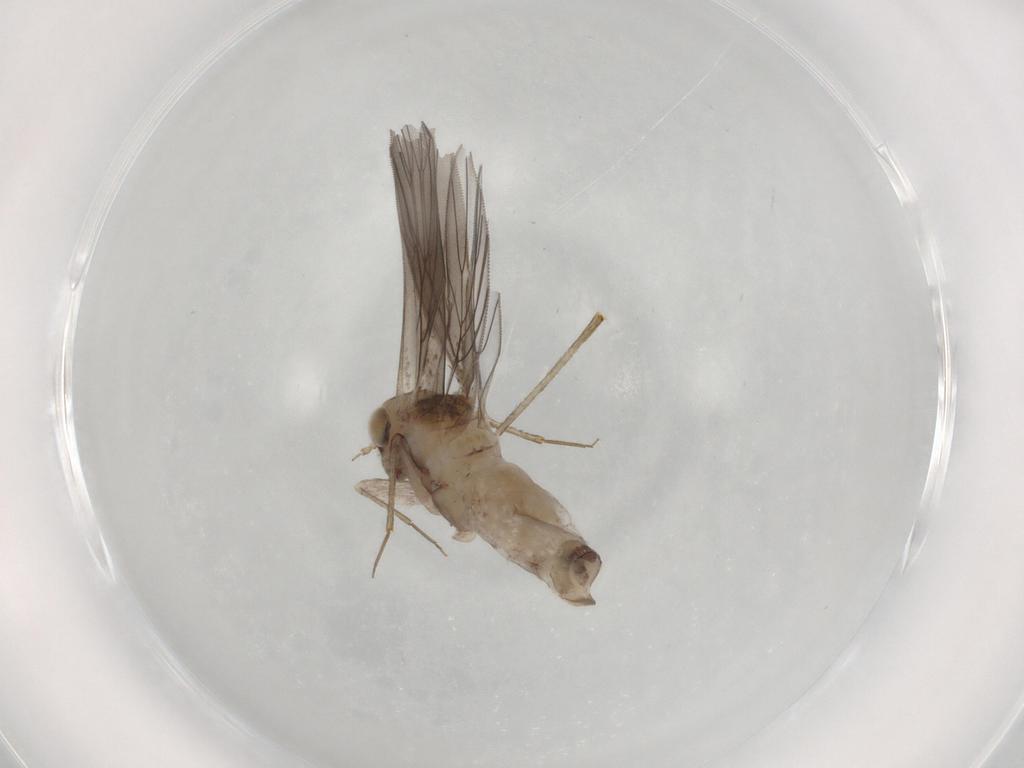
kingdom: Animalia
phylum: Arthropoda
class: Insecta
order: Psocodea
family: Lepidopsocidae
